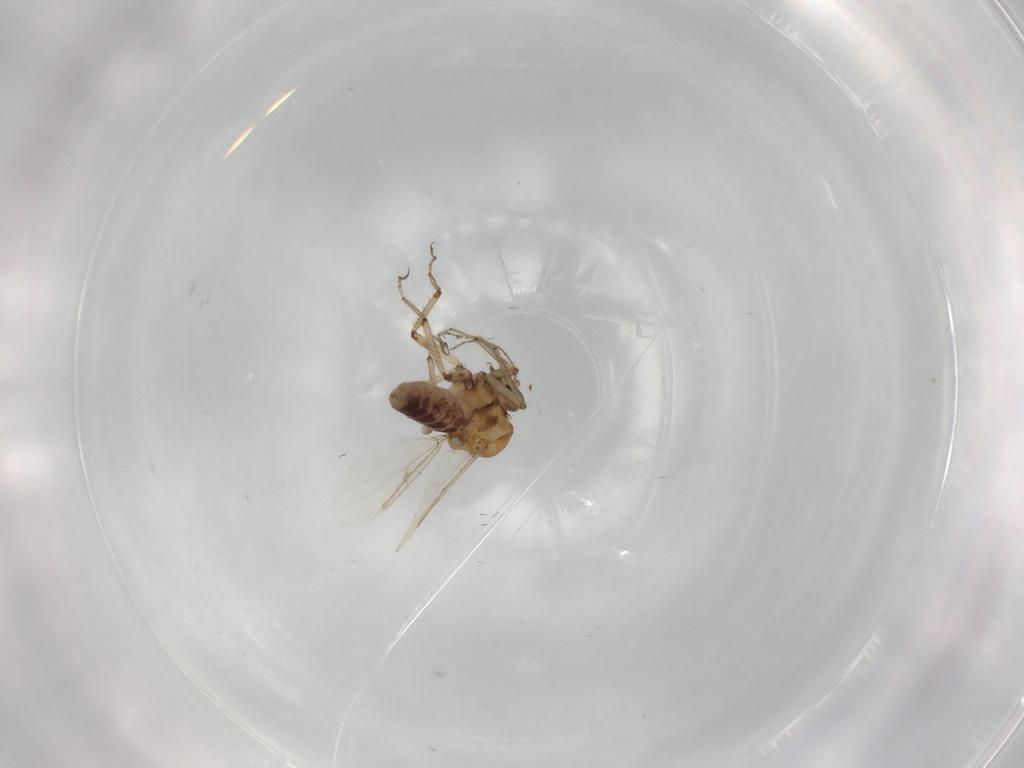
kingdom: Animalia
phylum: Arthropoda
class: Insecta
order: Diptera
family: Ceratopogonidae
